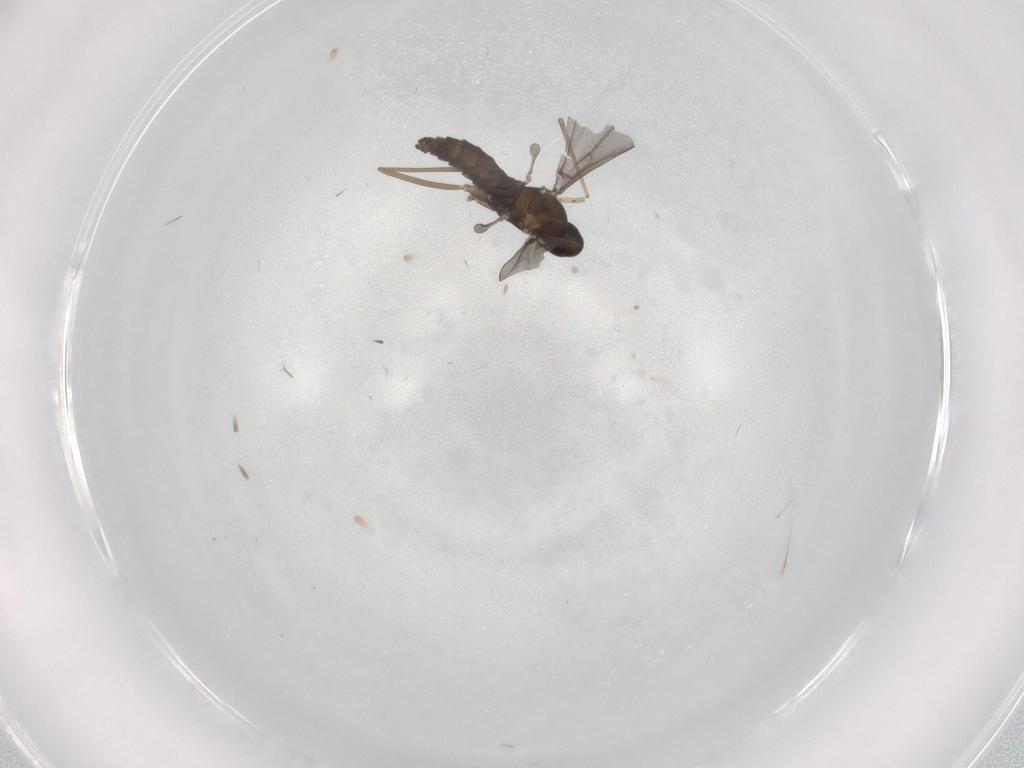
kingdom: Animalia
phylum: Arthropoda
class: Insecta
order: Diptera
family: Cecidomyiidae
